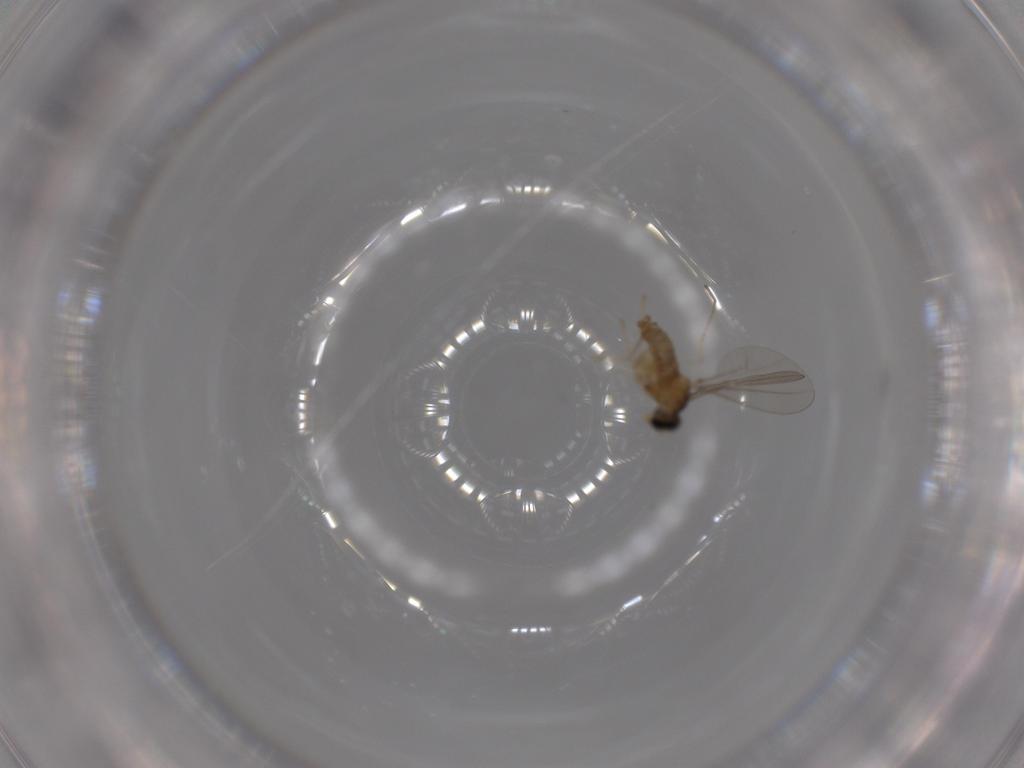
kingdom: Animalia
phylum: Arthropoda
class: Insecta
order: Diptera
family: Cecidomyiidae
